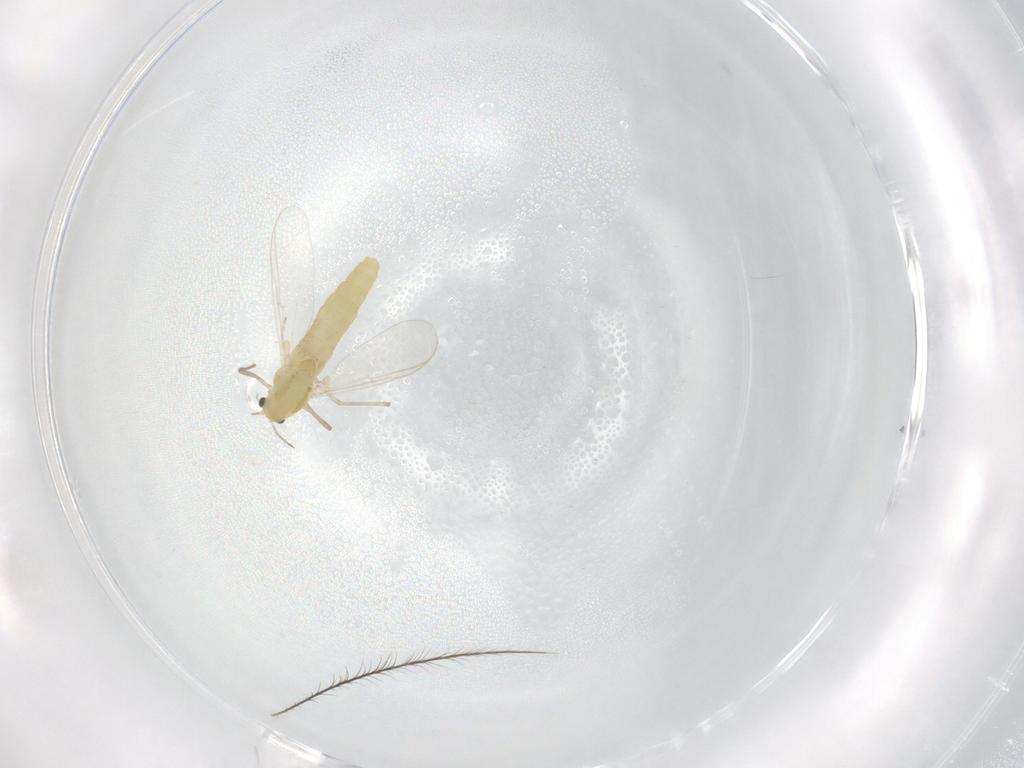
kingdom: Animalia
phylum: Arthropoda
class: Insecta
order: Diptera
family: Chironomidae
